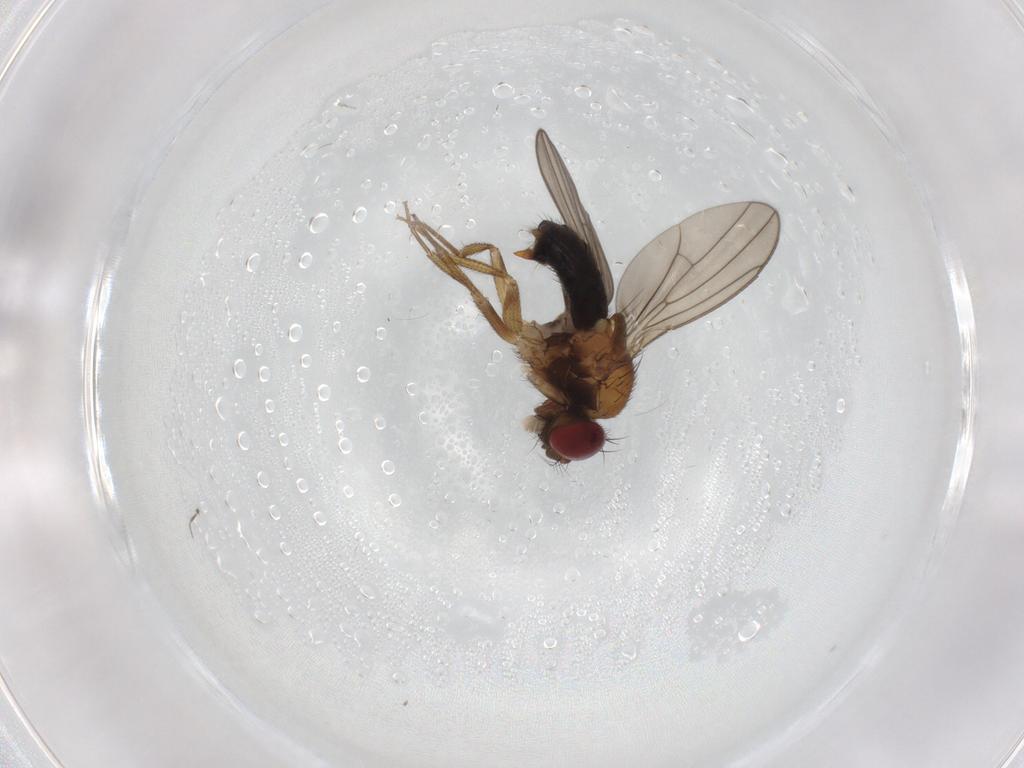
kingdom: Animalia
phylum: Arthropoda
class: Insecta
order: Diptera
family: Drosophilidae
